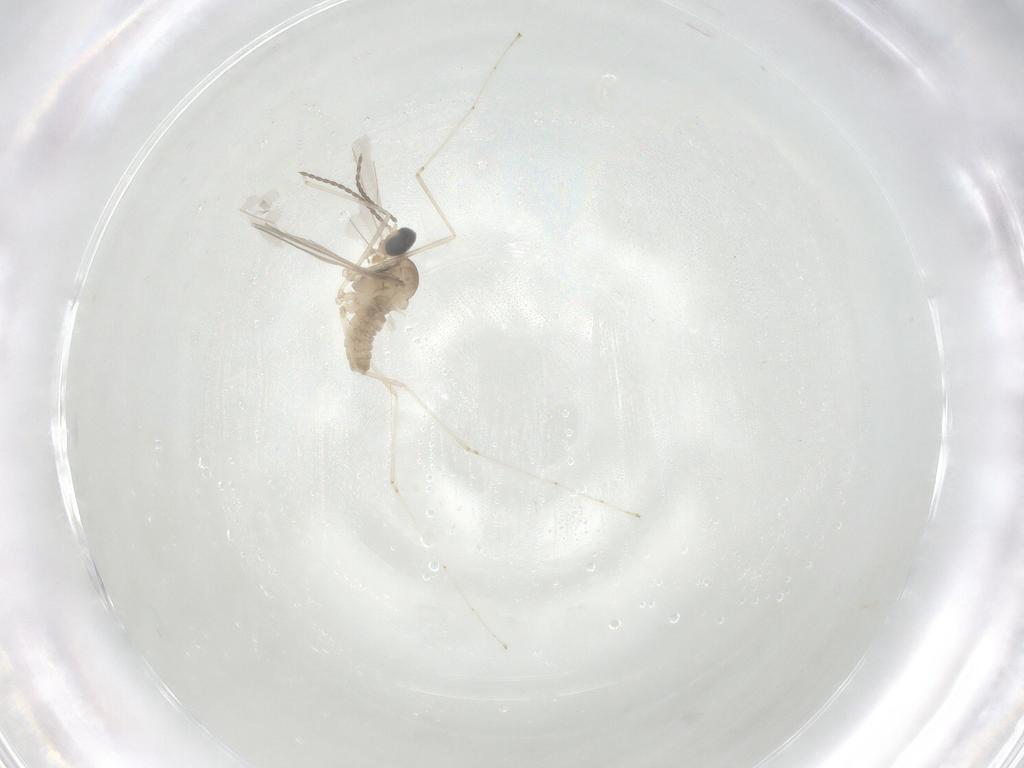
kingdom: Animalia
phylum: Arthropoda
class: Insecta
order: Diptera
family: Cecidomyiidae
